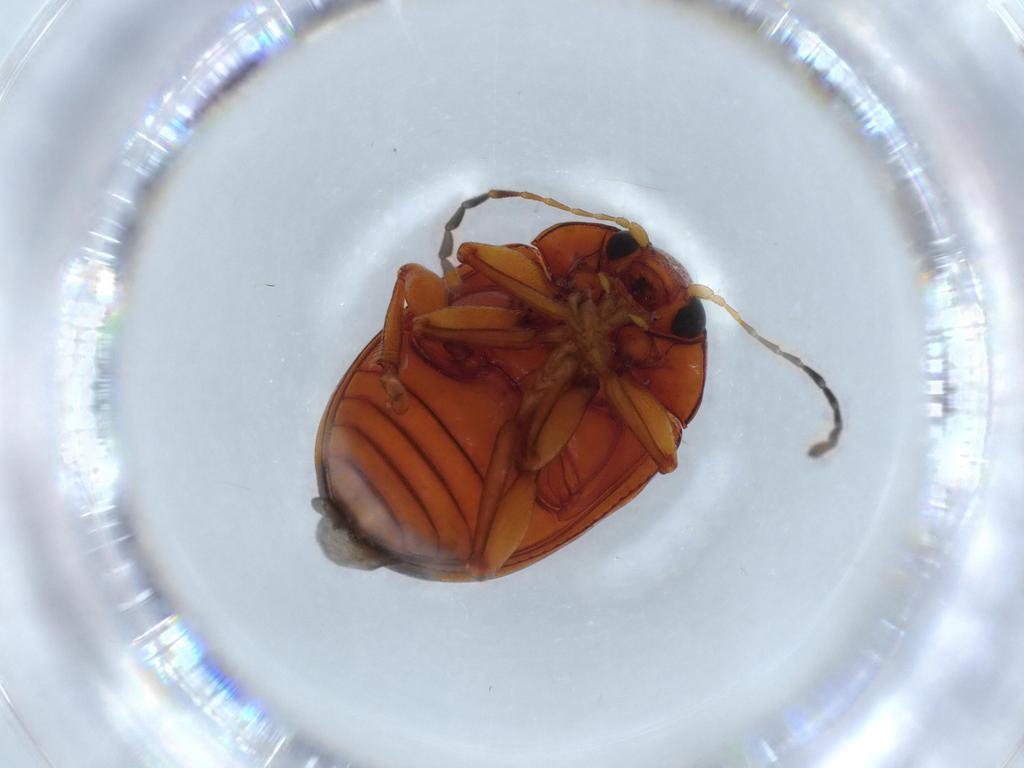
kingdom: Animalia
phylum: Arthropoda
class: Insecta
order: Coleoptera
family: Chrysomelidae
